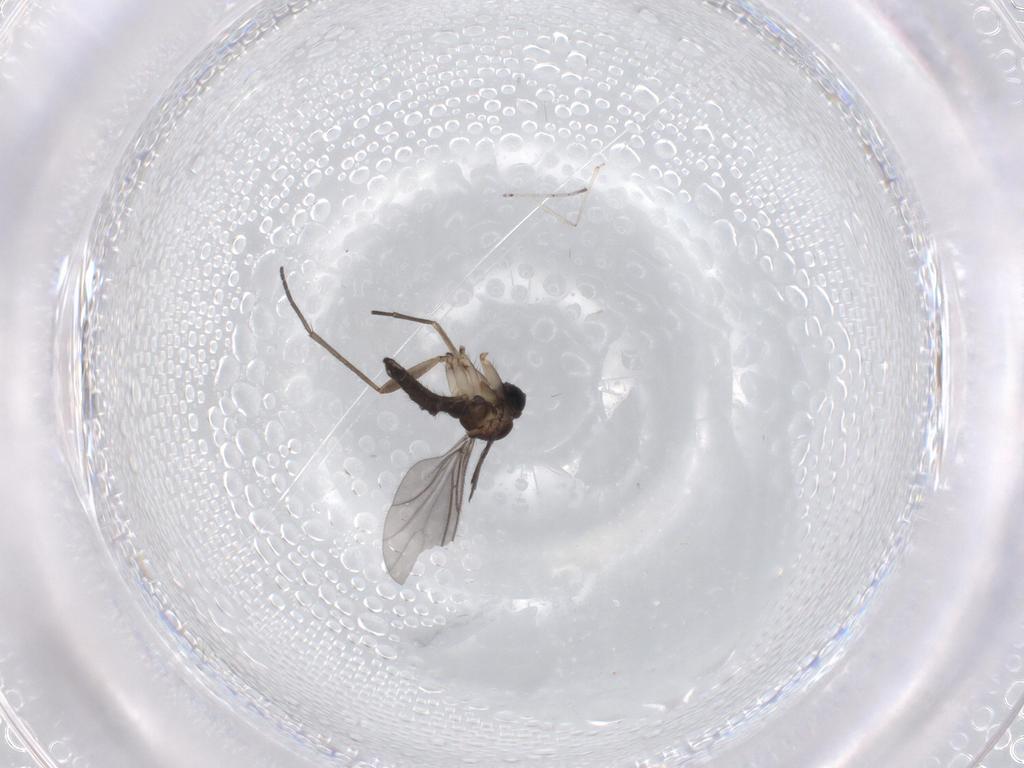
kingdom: Animalia
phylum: Arthropoda
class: Insecta
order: Diptera
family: Sciaridae
